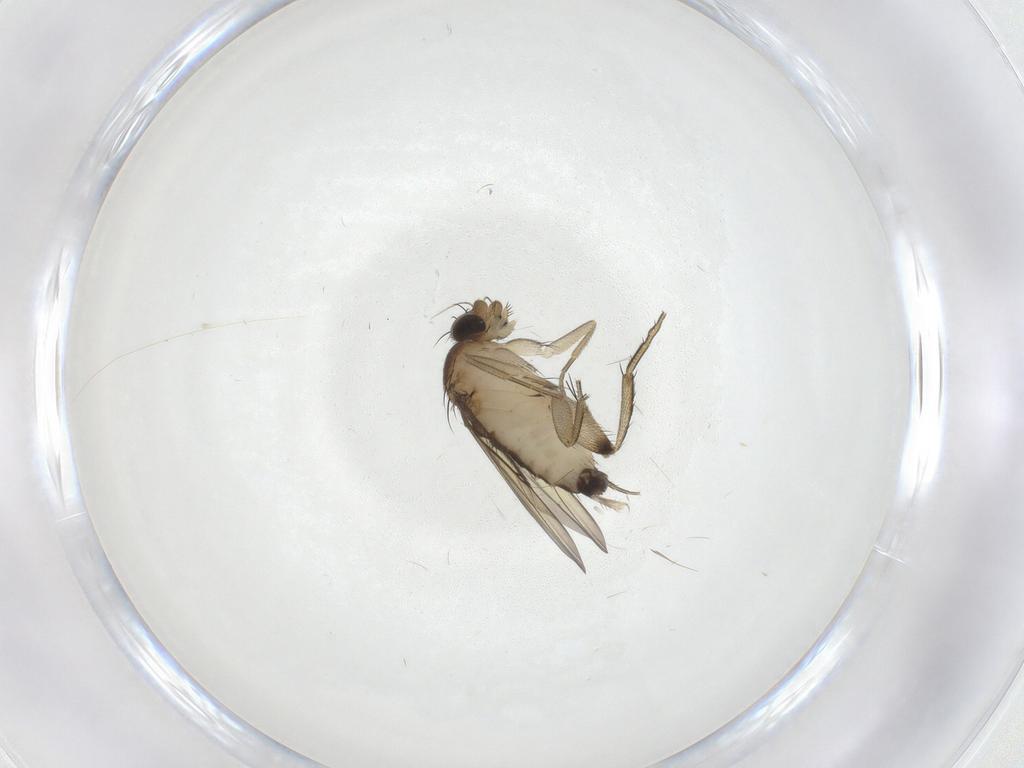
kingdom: Animalia
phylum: Arthropoda
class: Insecta
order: Diptera
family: Phoridae
